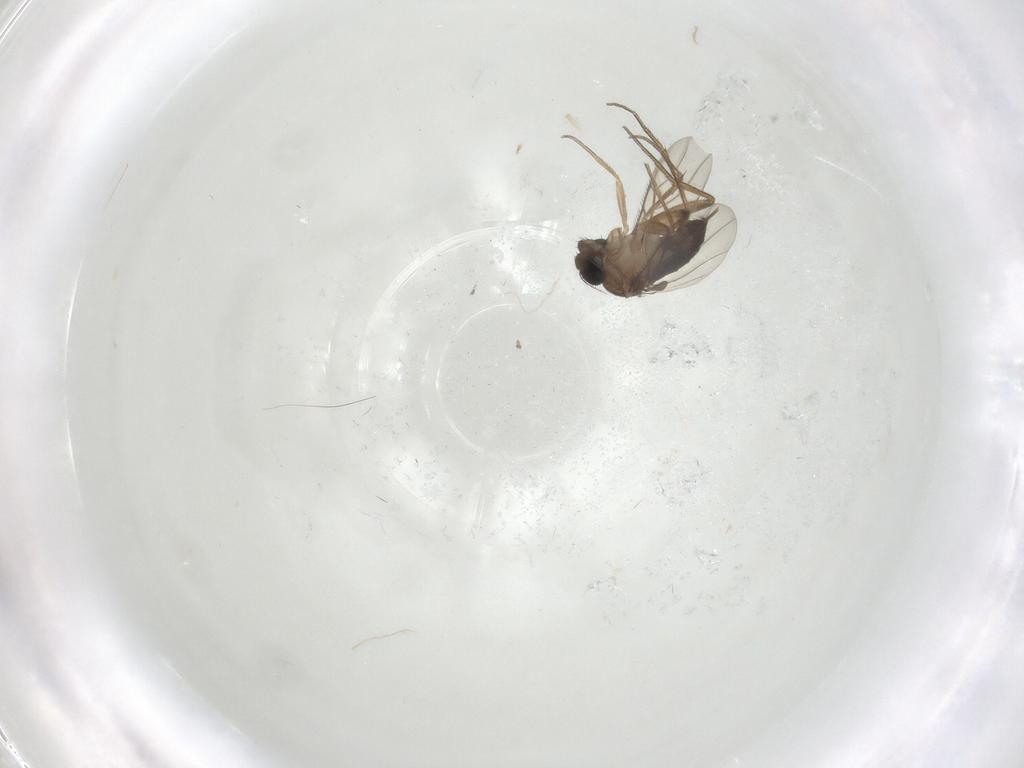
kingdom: Animalia
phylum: Arthropoda
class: Insecta
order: Diptera
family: Phoridae
